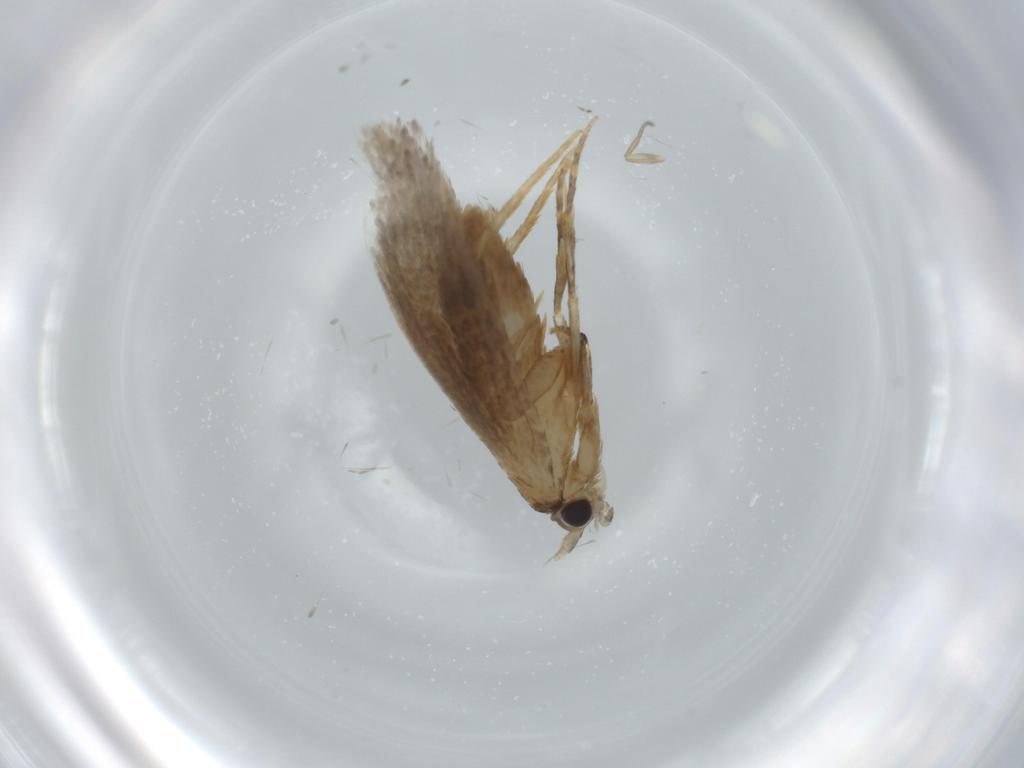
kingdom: Animalia
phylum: Arthropoda
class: Insecta
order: Lepidoptera
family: Tineidae
